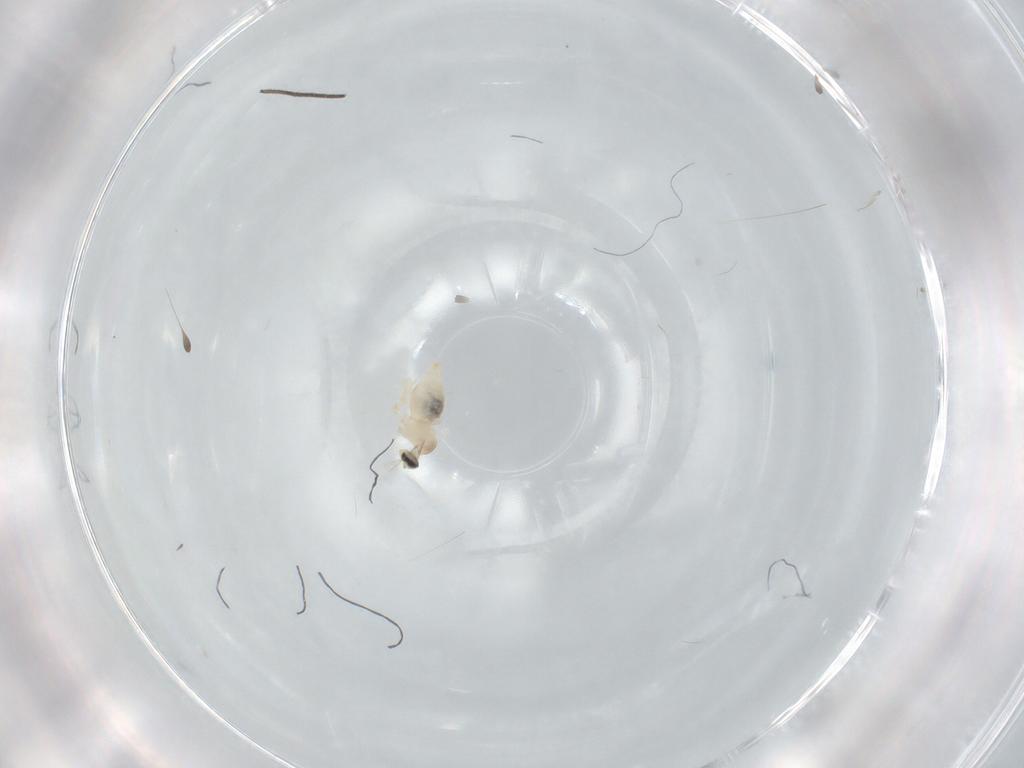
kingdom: Animalia
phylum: Arthropoda
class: Insecta
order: Diptera
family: Cecidomyiidae
